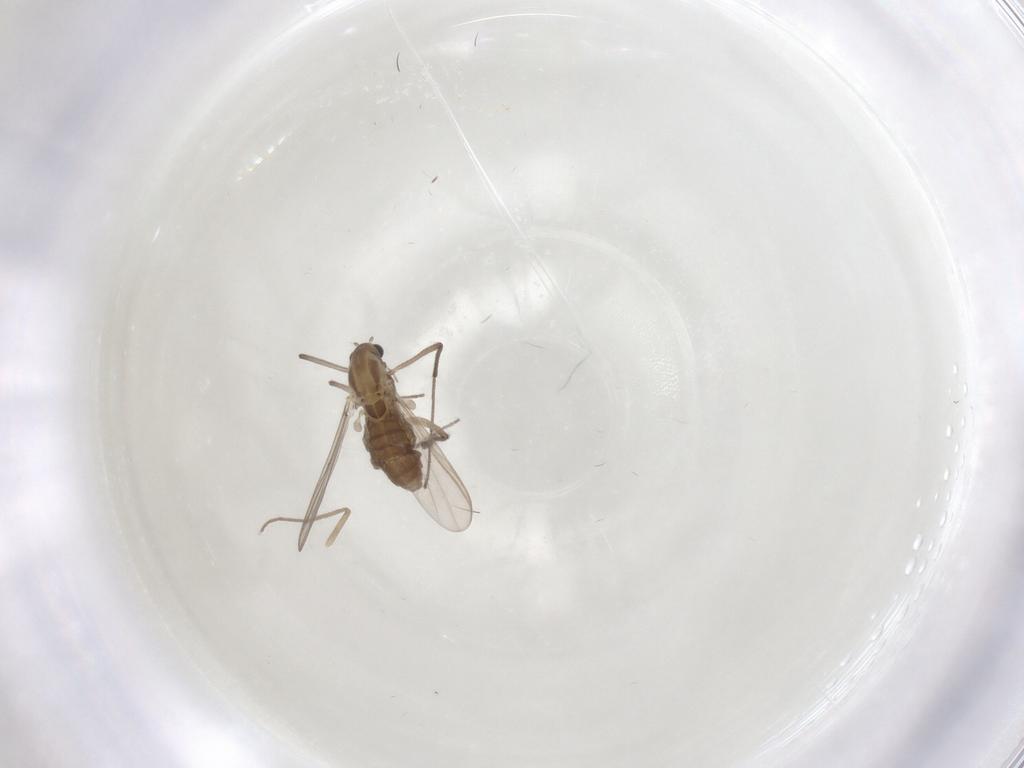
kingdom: Animalia
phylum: Arthropoda
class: Insecta
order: Diptera
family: Chironomidae
